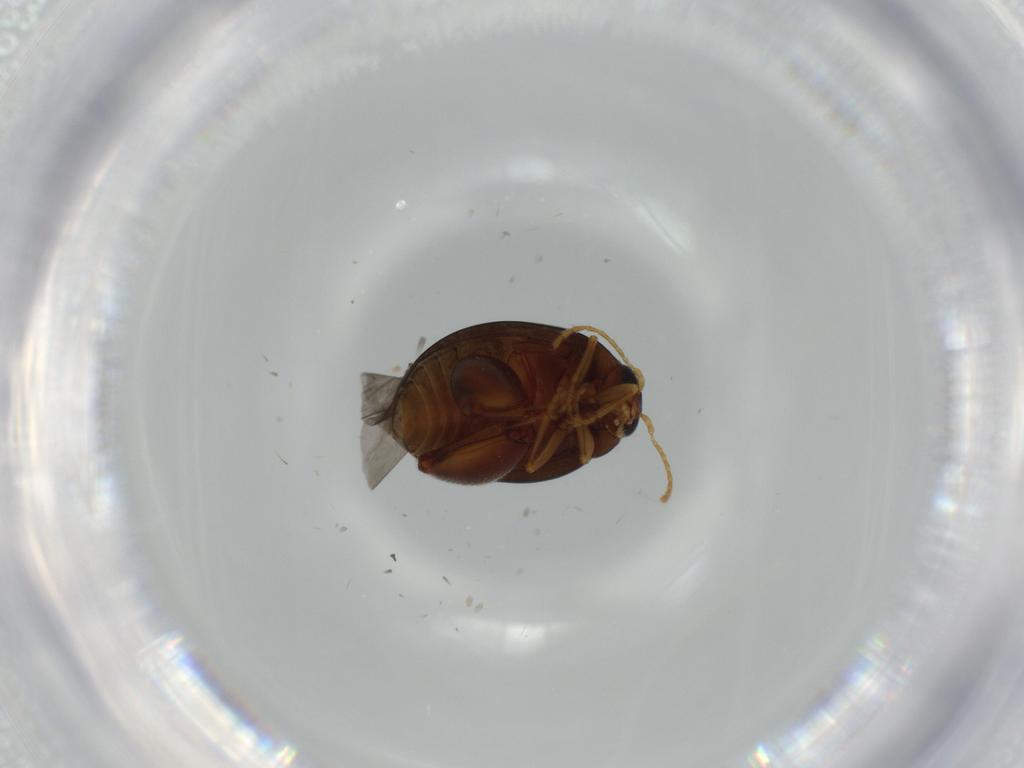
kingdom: Animalia
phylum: Arthropoda
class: Insecta
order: Coleoptera
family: Chrysomelidae
